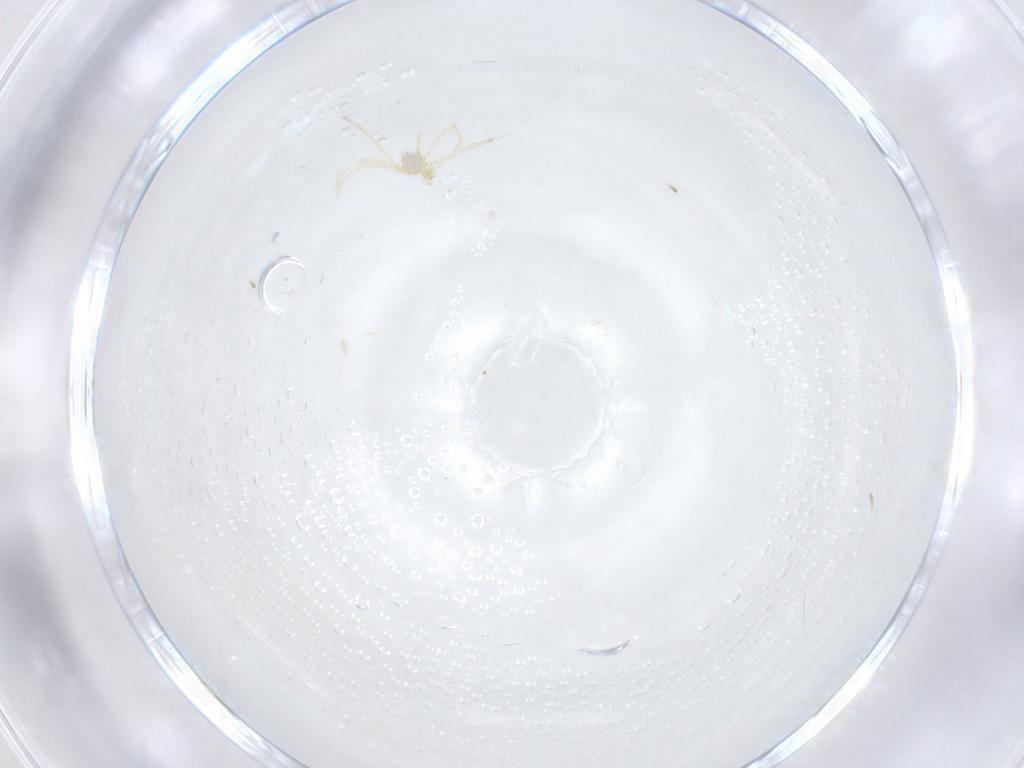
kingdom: Animalia
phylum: Arthropoda
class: Arachnida
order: Trombidiformes
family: Erythraeidae
